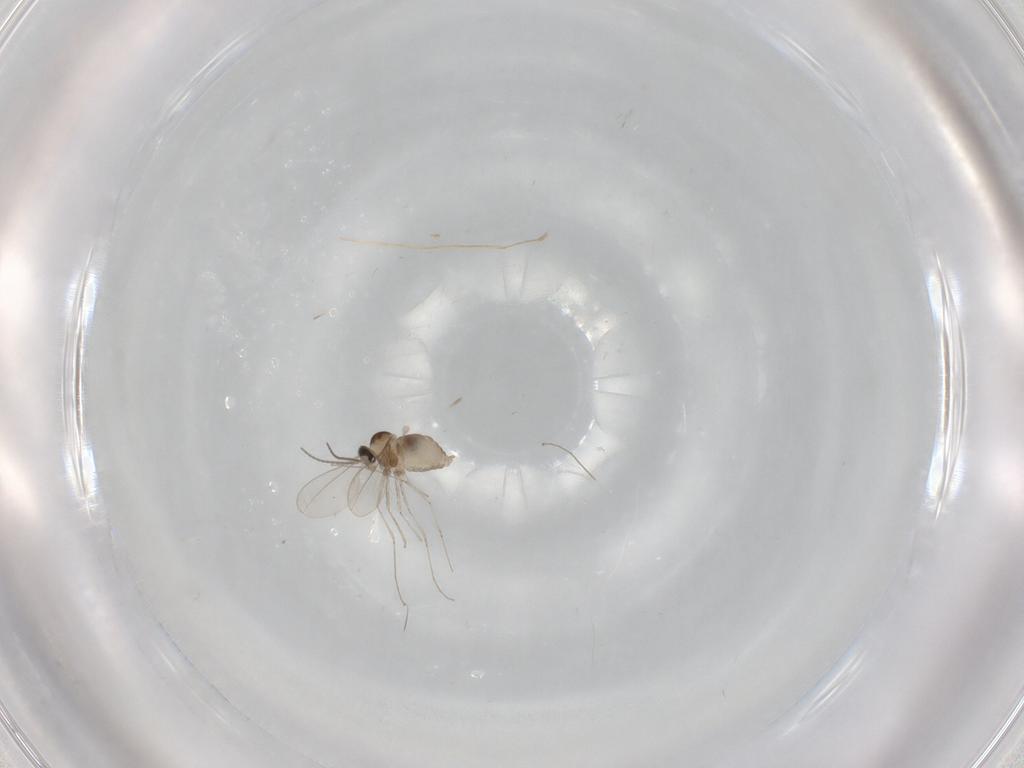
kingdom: Animalia
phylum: Arthropoda
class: Insecta
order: Diptera
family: Cecidomyiidae
